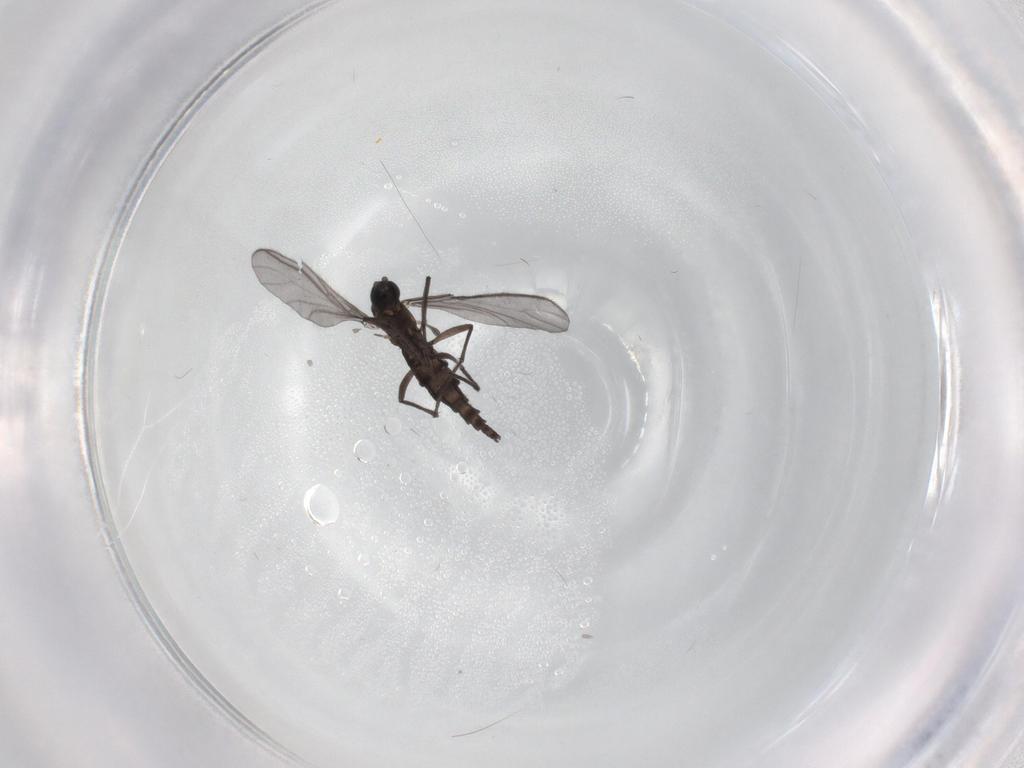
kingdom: Animalia
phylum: Arthropoda
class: Insecta
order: Diptera
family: Sciaridae
